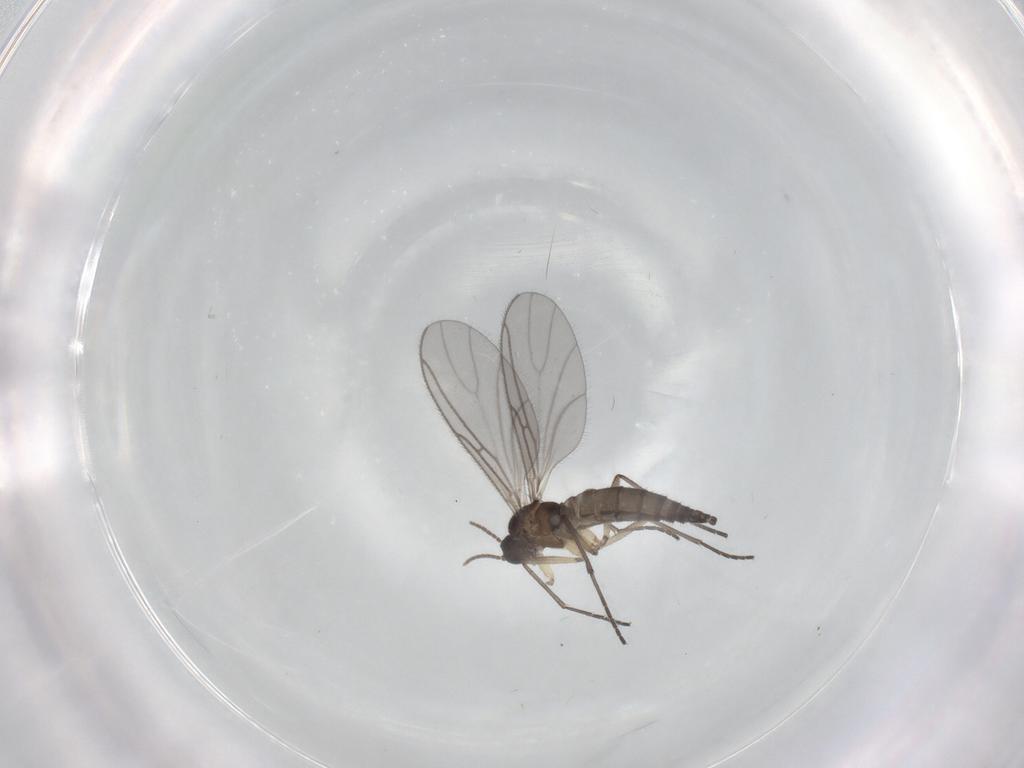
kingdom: Animalia
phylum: Arthropoda
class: Insecta
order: Diptera
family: Sciaridae
